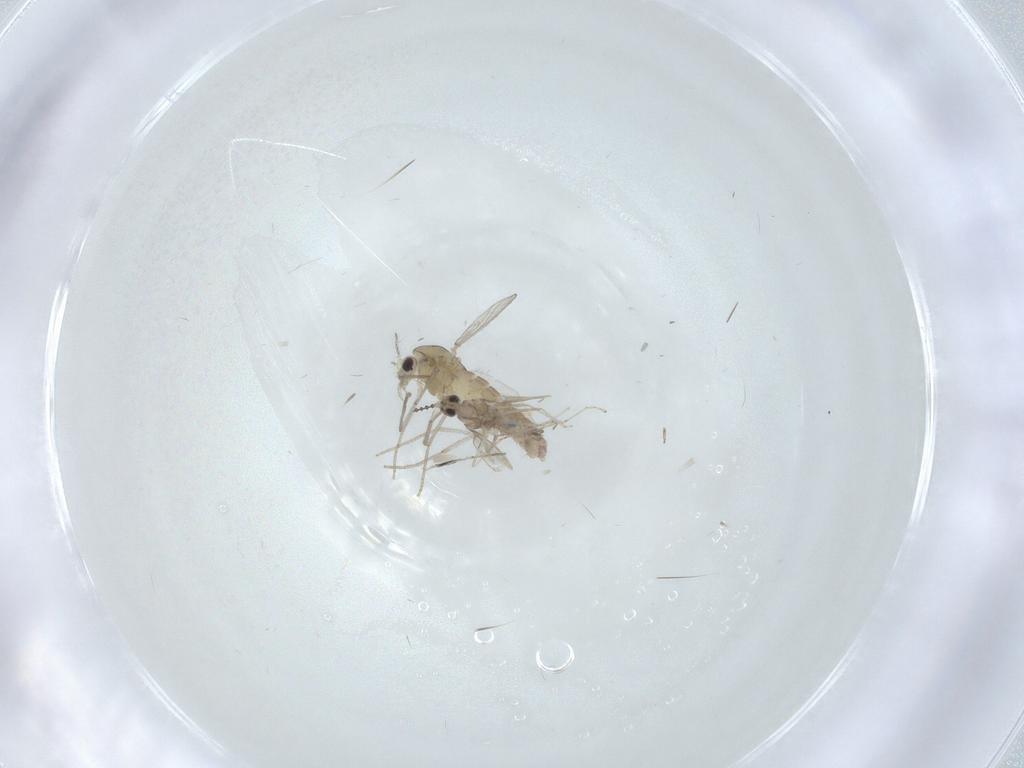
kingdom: Animalia
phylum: Arthropoda
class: Insecta
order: Diptera
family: Chironomidae
